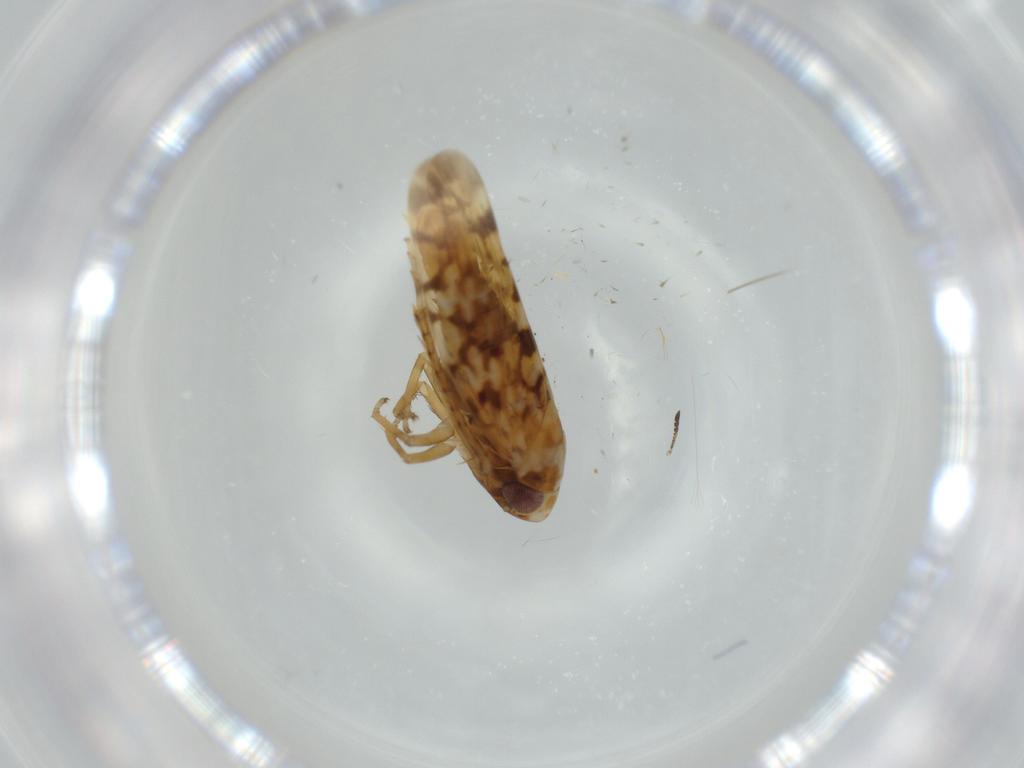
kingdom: Animalia
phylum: Arthropoda
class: Insecta
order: Hemiptera
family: Cicadellidae
